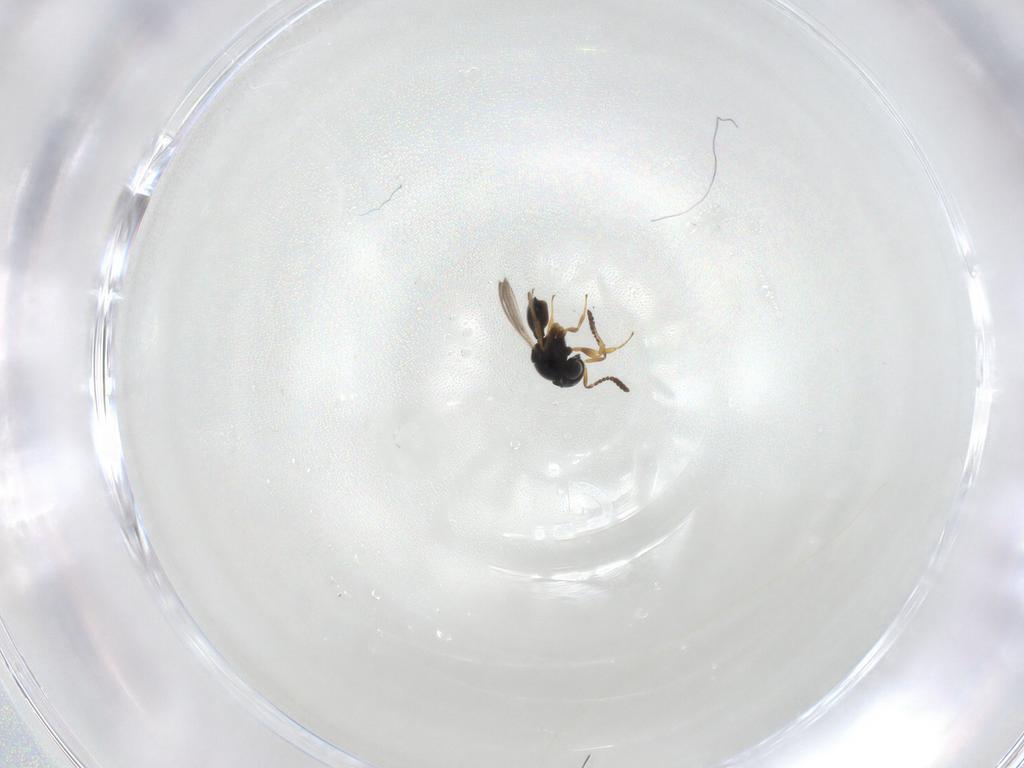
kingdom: Animalia
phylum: Arthropoda
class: Insecta
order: Hymenoptera
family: Scelionidae
